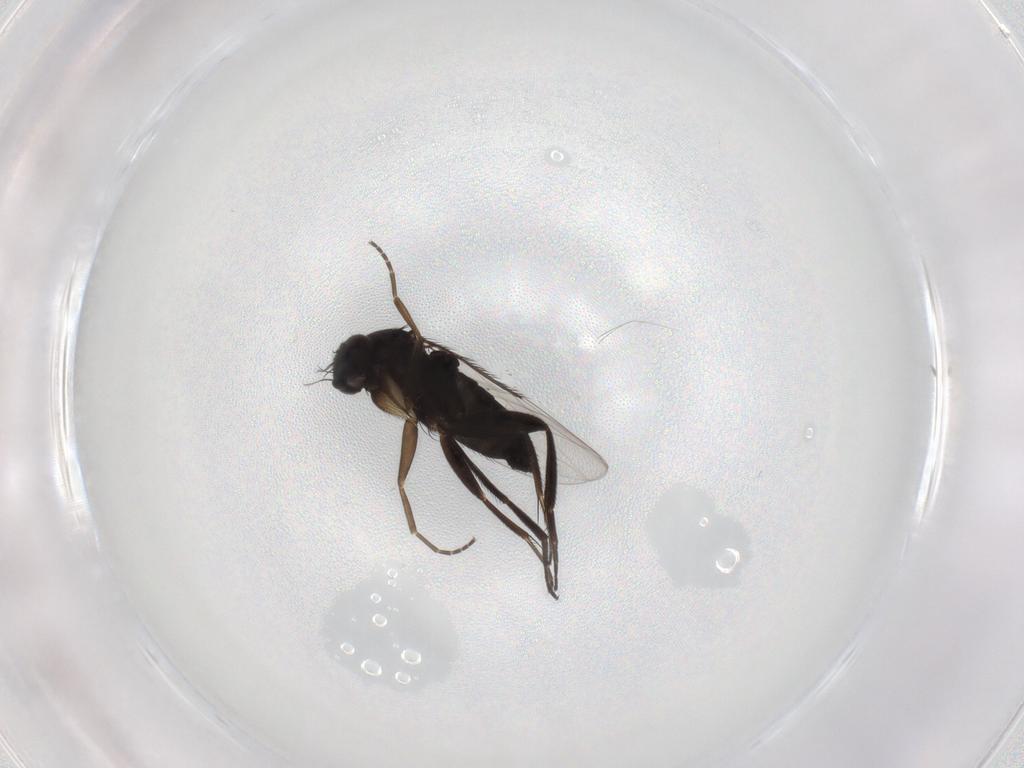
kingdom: Animalia
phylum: Arthropoda
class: Insecta
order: Diptera
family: Phoridae
